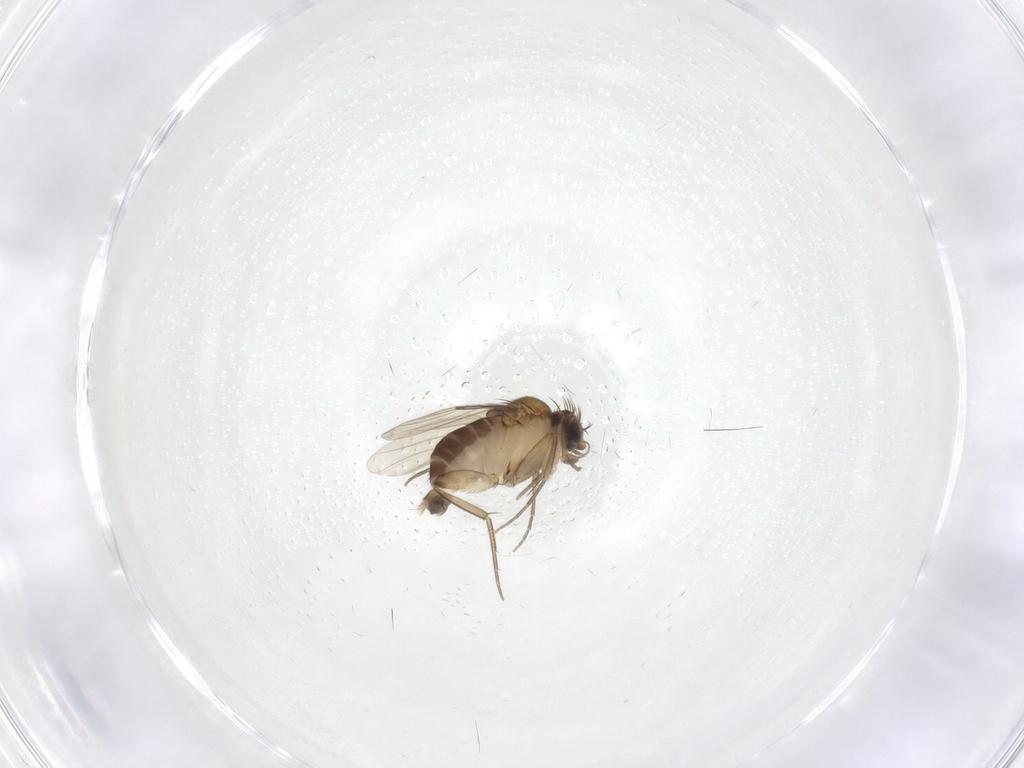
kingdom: Animalia
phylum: Arthropoda
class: Insecta
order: Diptera
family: Phoridae
